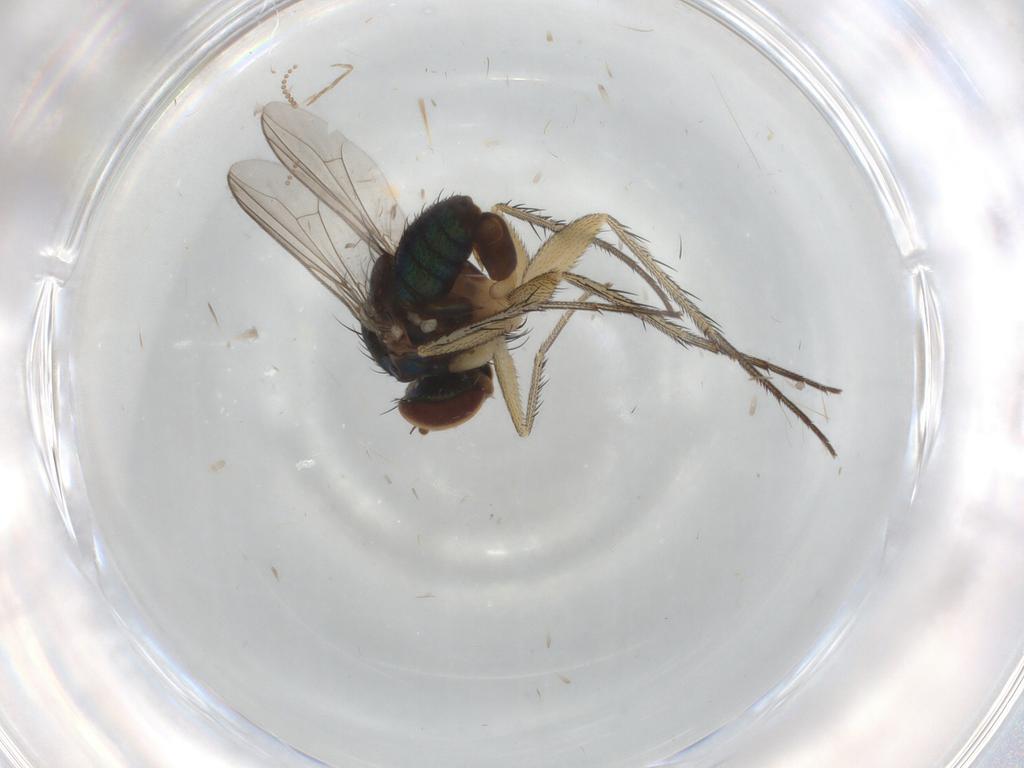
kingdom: Animalia
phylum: Arthropoda
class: Insecta
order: Diptera
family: Dolichopodidae
